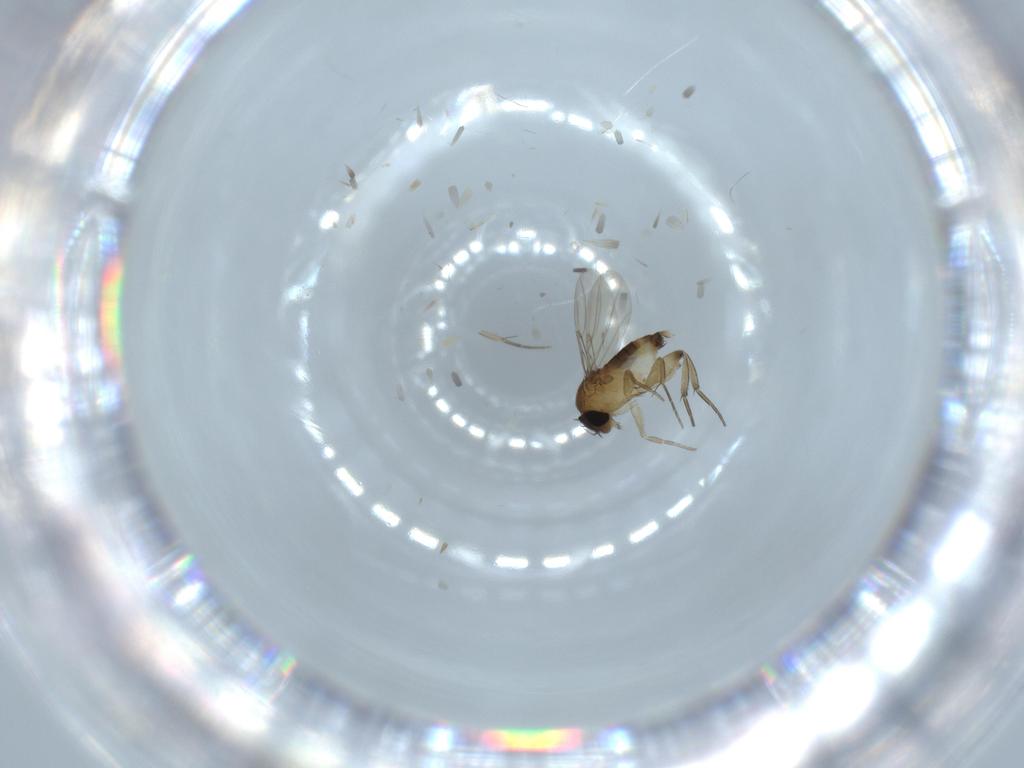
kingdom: Animalia
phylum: Arthropoda
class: Insecta
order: Diptera
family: Phoridae
